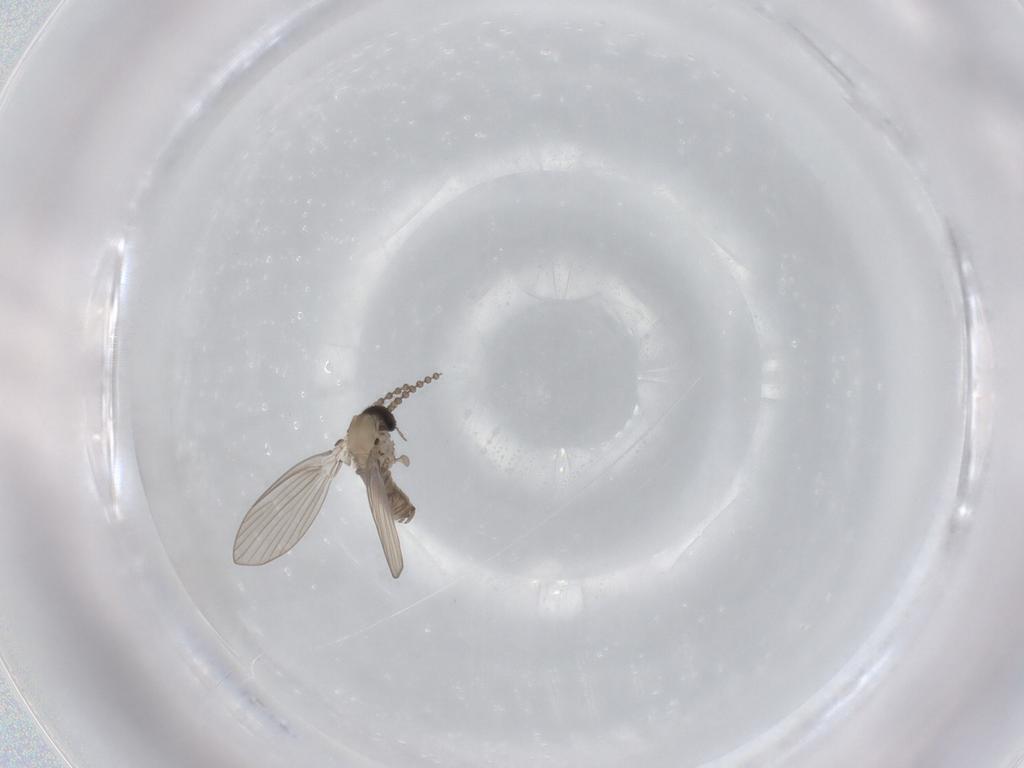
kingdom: Animalia
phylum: Arthropoda
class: Insecta
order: Diptera
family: Psychodidae
